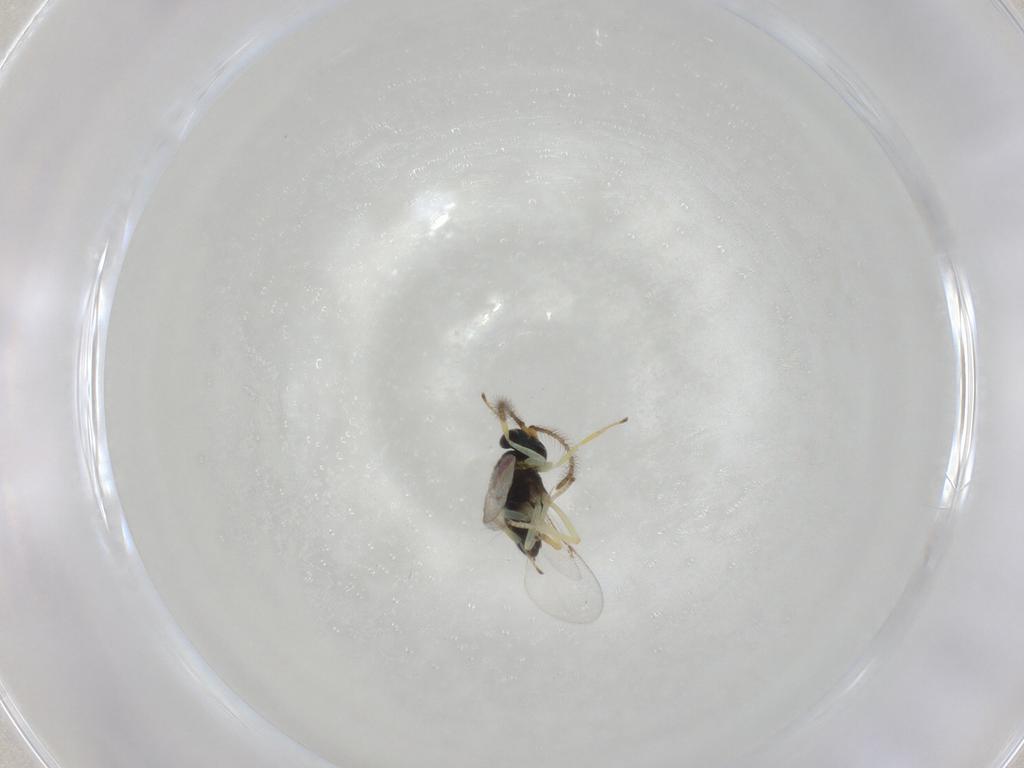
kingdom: Animalia
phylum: Arthropoda
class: Insecta
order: Hymenoptera
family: Encyrtidae
